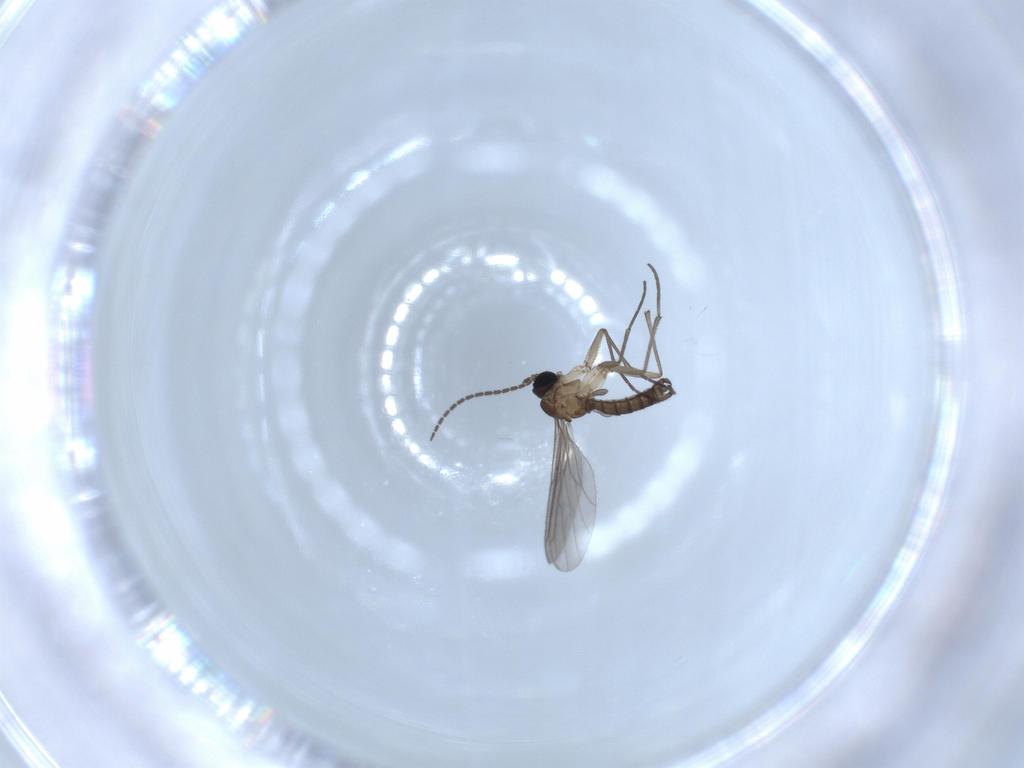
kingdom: Animalia
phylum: Arthropoda
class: Insecta
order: Diptera
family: Sciaridae
